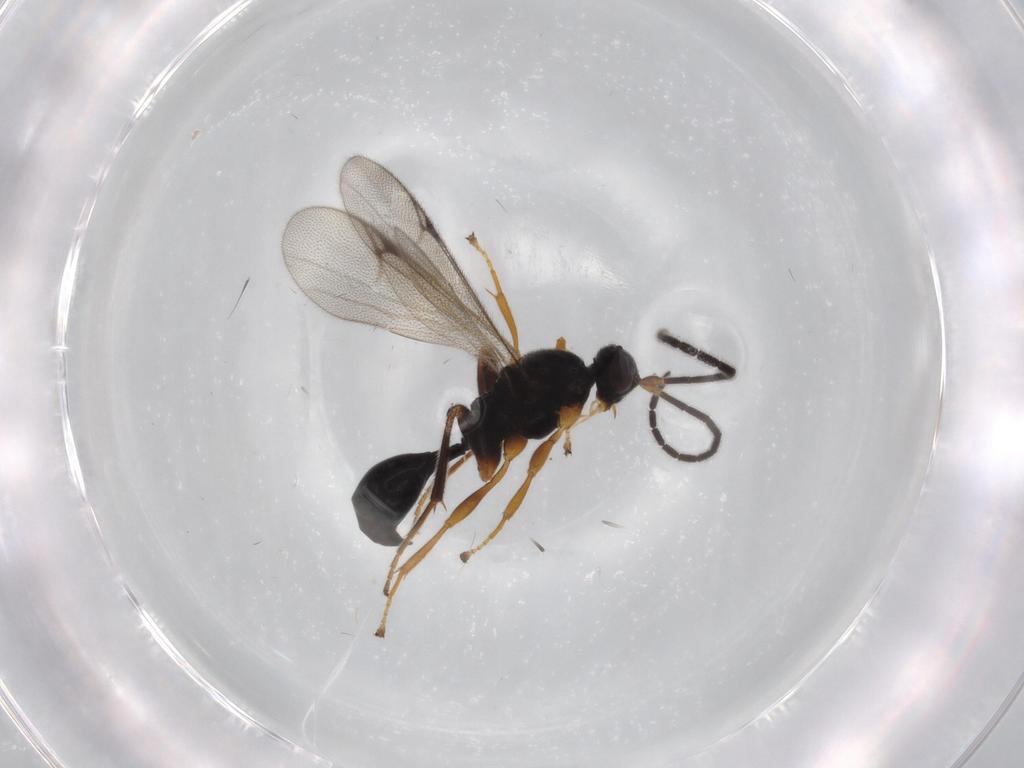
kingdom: Animalia
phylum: Arthropoda
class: Insecta
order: Hymenoptera
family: Proctotrupidae
